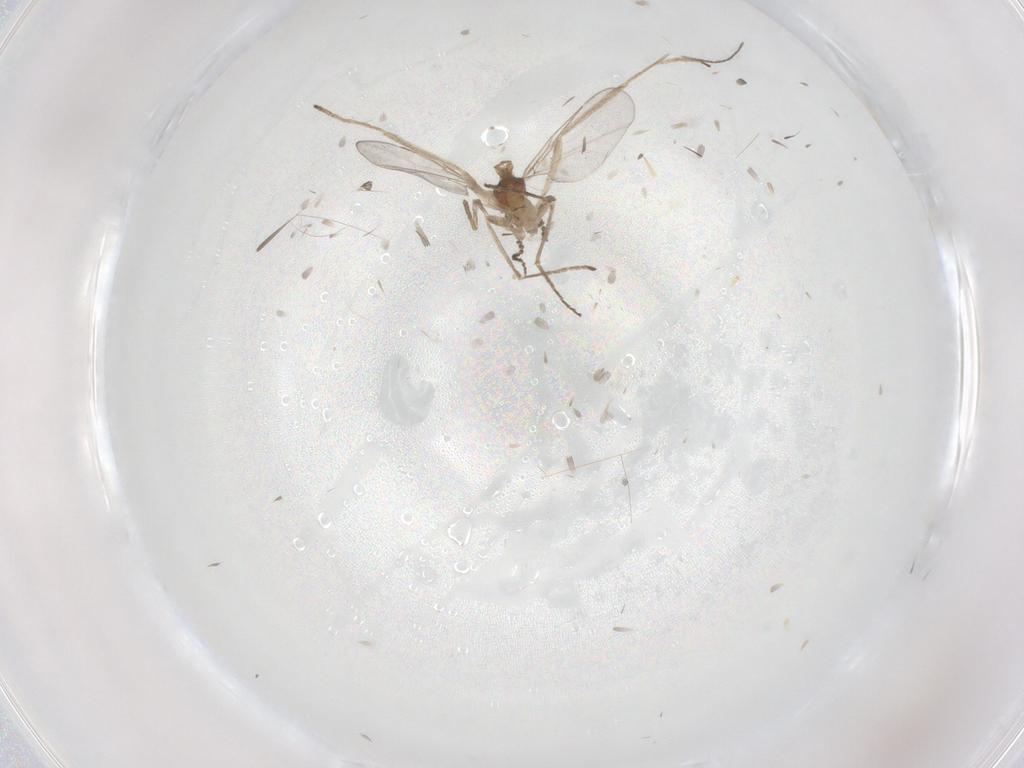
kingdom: Animalia
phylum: Arthropoda
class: Insecta
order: Diptera
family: Cecidomyiidae
